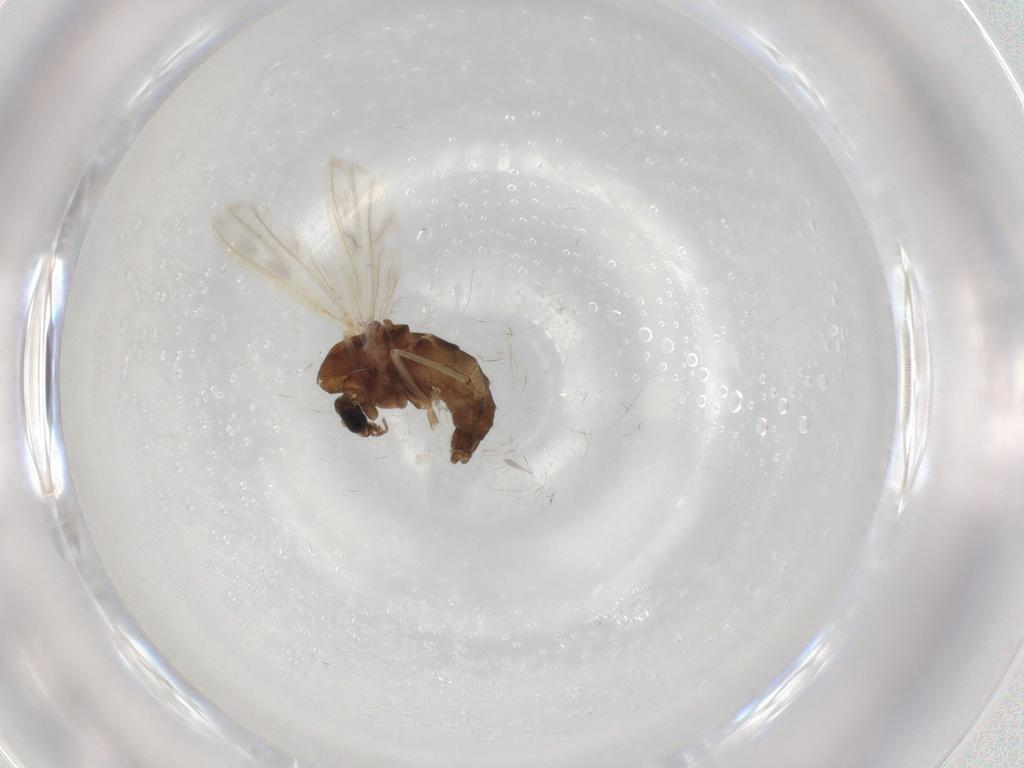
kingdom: Animalia
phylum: Arthropoda
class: Insecta
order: Diptera
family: Chironomidae
